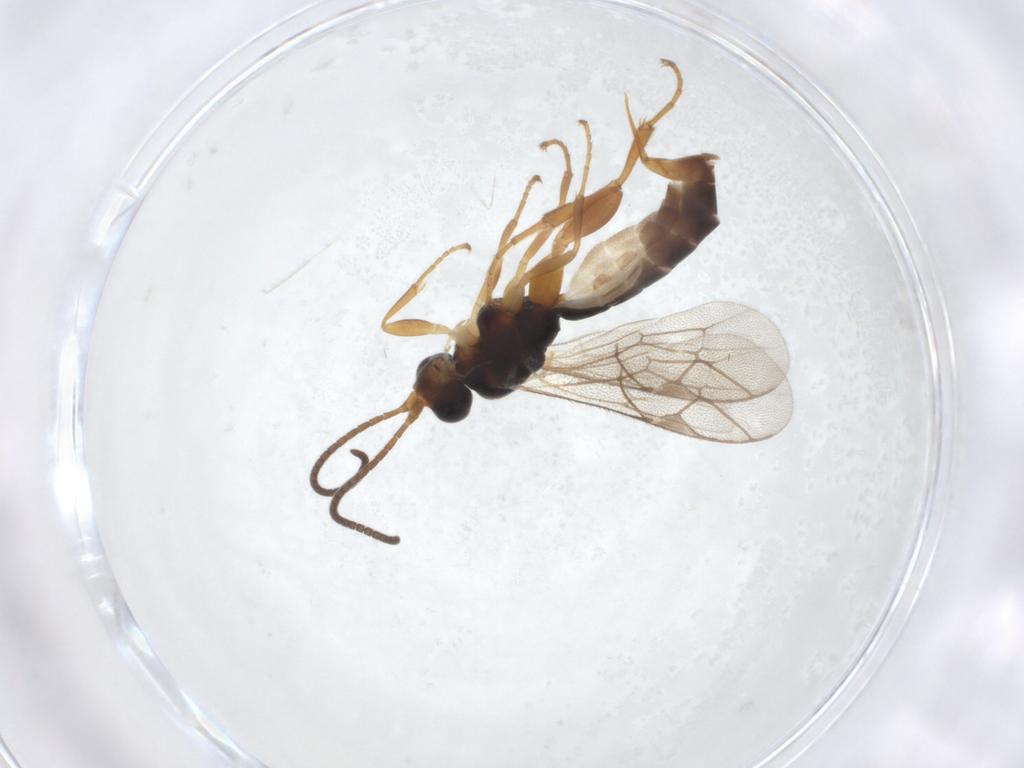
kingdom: Animalia
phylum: Arthropoda
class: Insecta
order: Hymenoptera
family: Ichneumonidae
